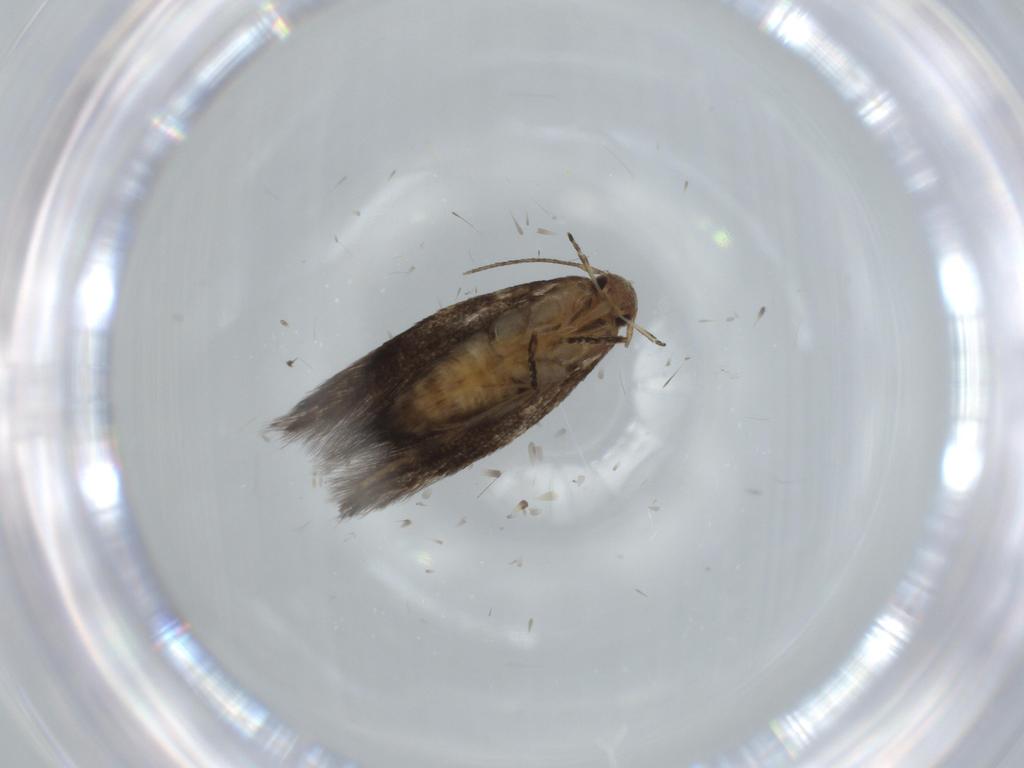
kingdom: Animalia
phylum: Arthropoda
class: Insecta
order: Lepidoptera
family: Elachistidae
